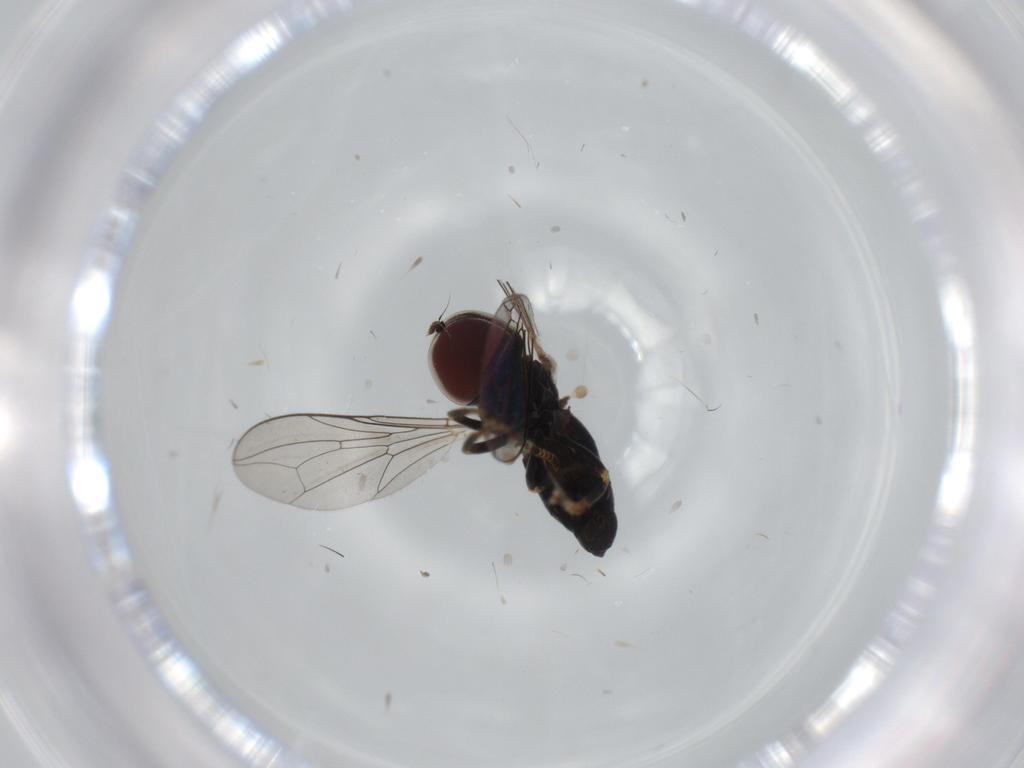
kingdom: Animalia
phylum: Arthropoda
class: Insecta
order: Diptera
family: Pipunculidae
